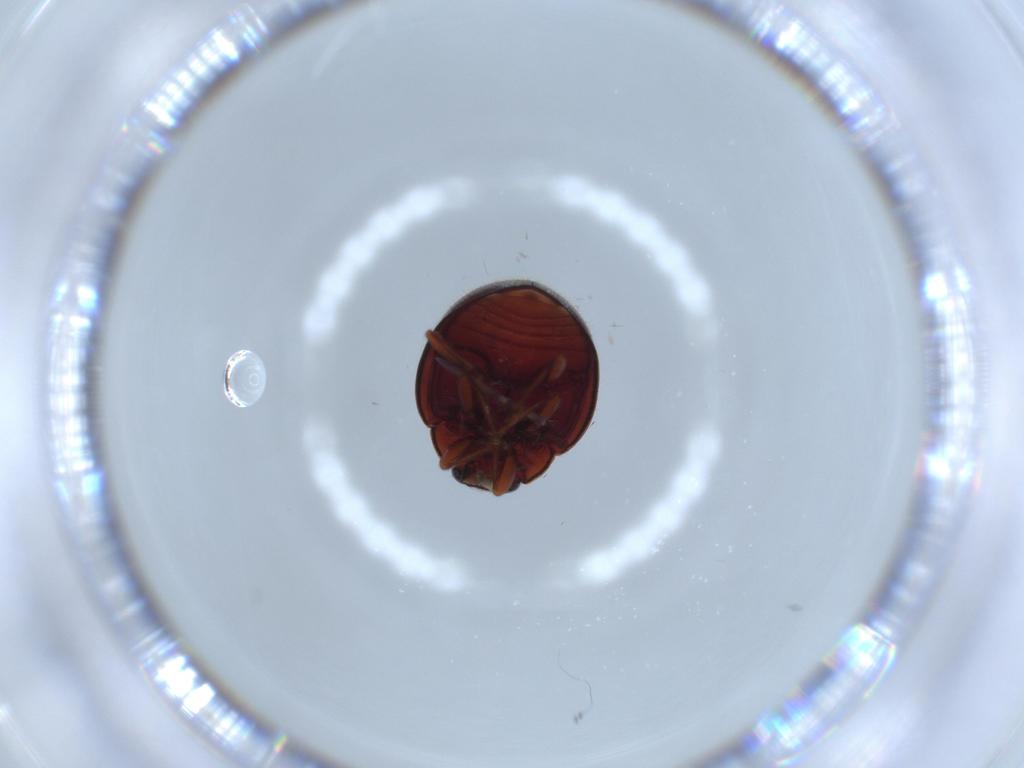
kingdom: Animalia
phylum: Arthropoda
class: Insecta
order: Coleoptera
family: Coccinellidae
